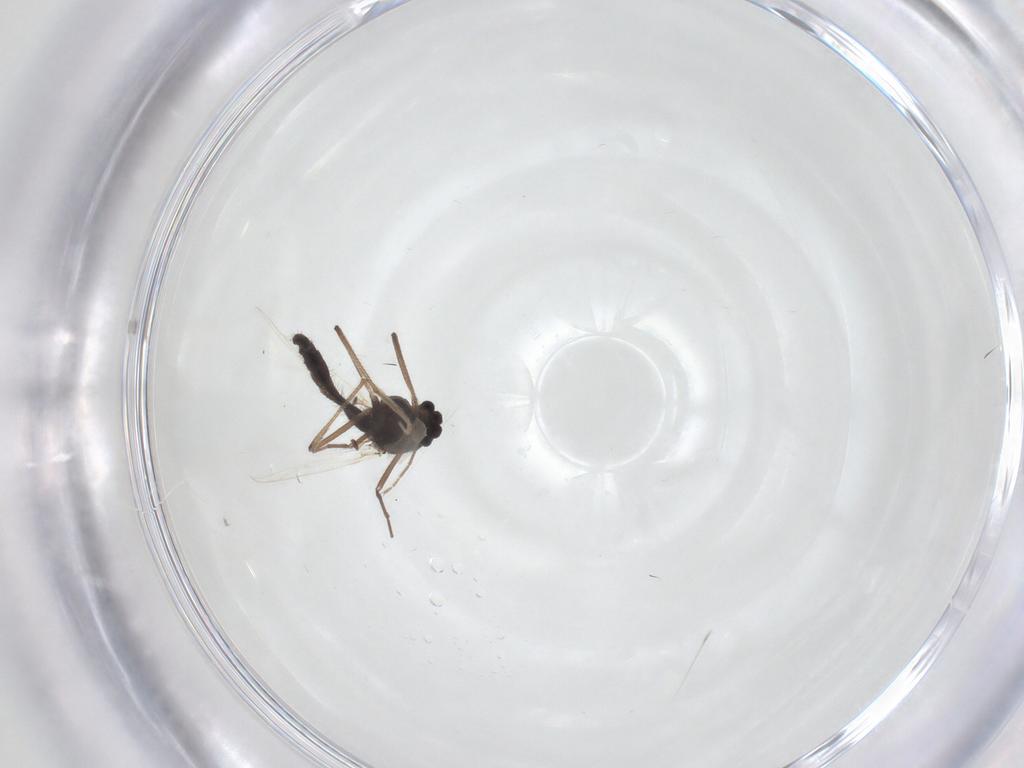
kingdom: Animalia
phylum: Arthropoda
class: Insecta
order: Diptera
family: Chironomidae
